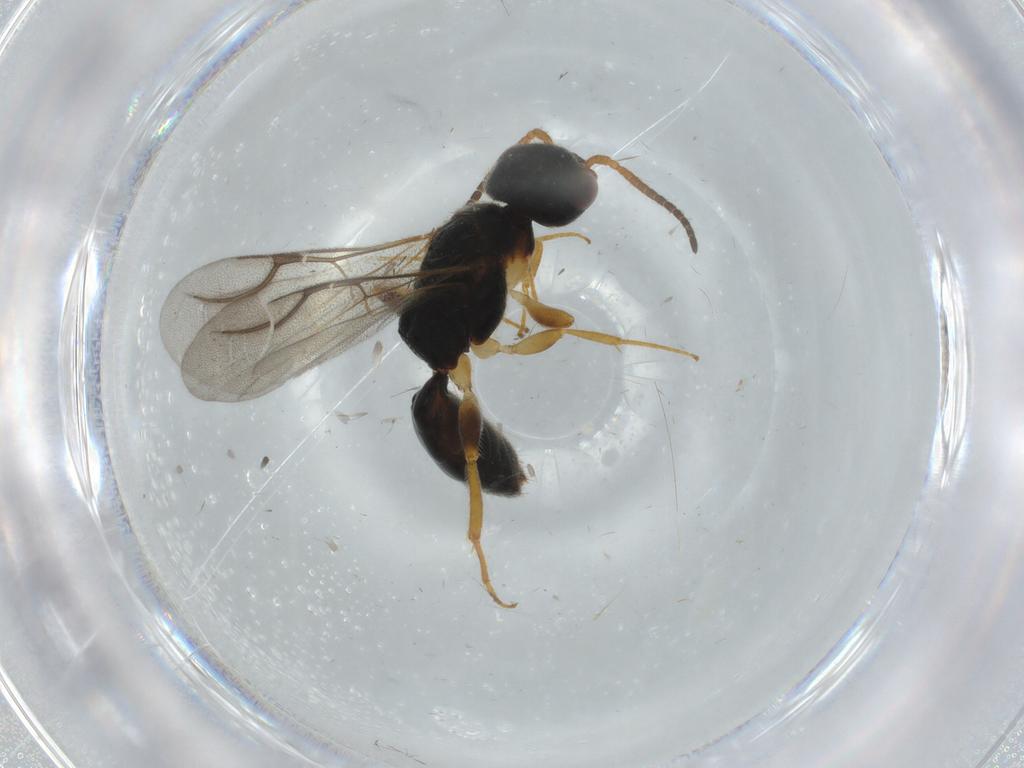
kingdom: Animalia
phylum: Arthropoda
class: Insecta
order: Hymenoptera
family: Bethylidae
